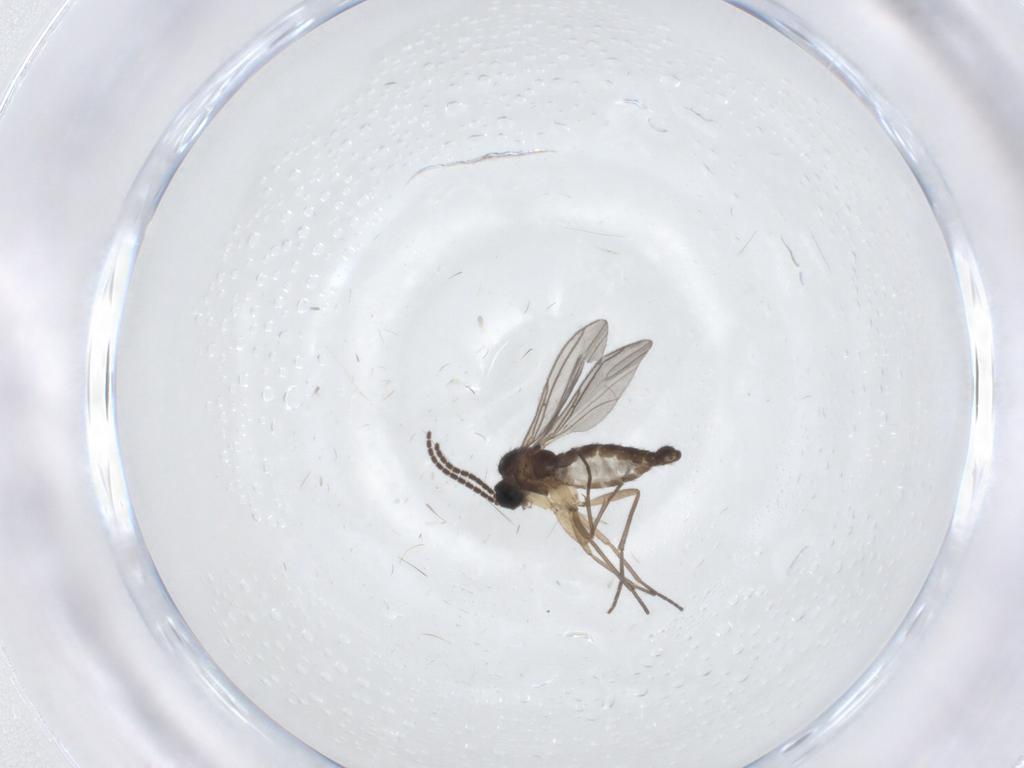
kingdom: Animalia
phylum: Arthropoda
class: Insecta
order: Diptera
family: Sciaridae
